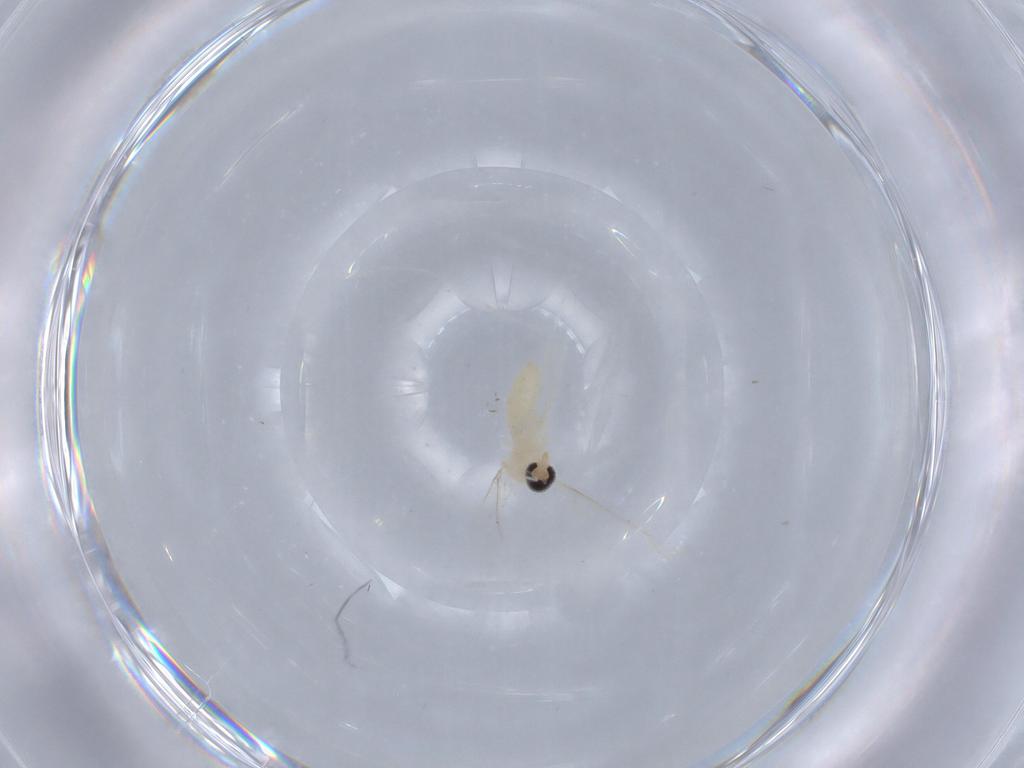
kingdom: Animalia
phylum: Arthropoda
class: Insecta
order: Diptera
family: Cecidomyiidae
